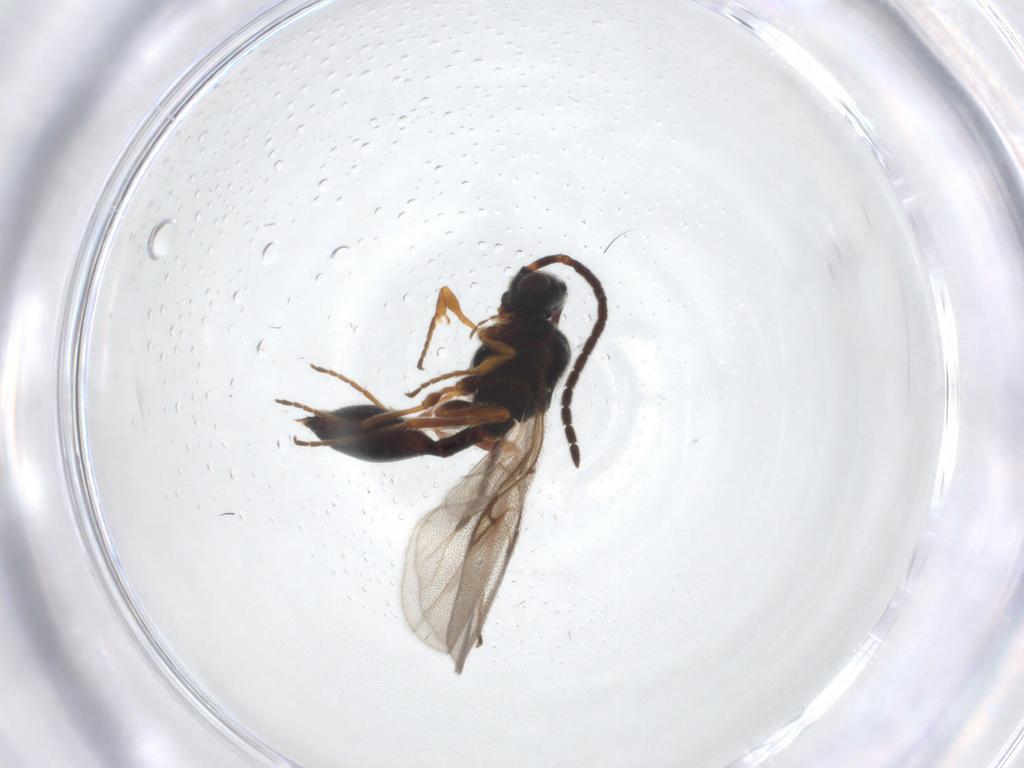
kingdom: Animalia
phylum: Arthropoda
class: Insecta
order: Hymenoptera
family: Diapriidae
